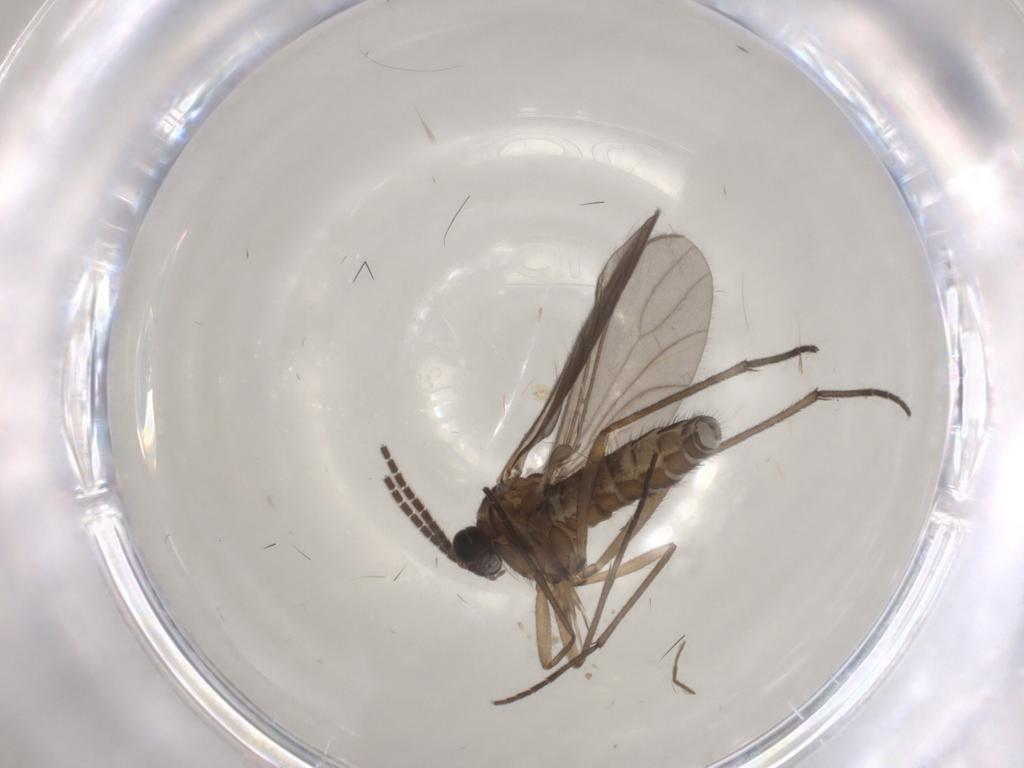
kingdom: Animalia
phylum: Arthropoda
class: Insecta
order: Diptera
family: Sciaridae
